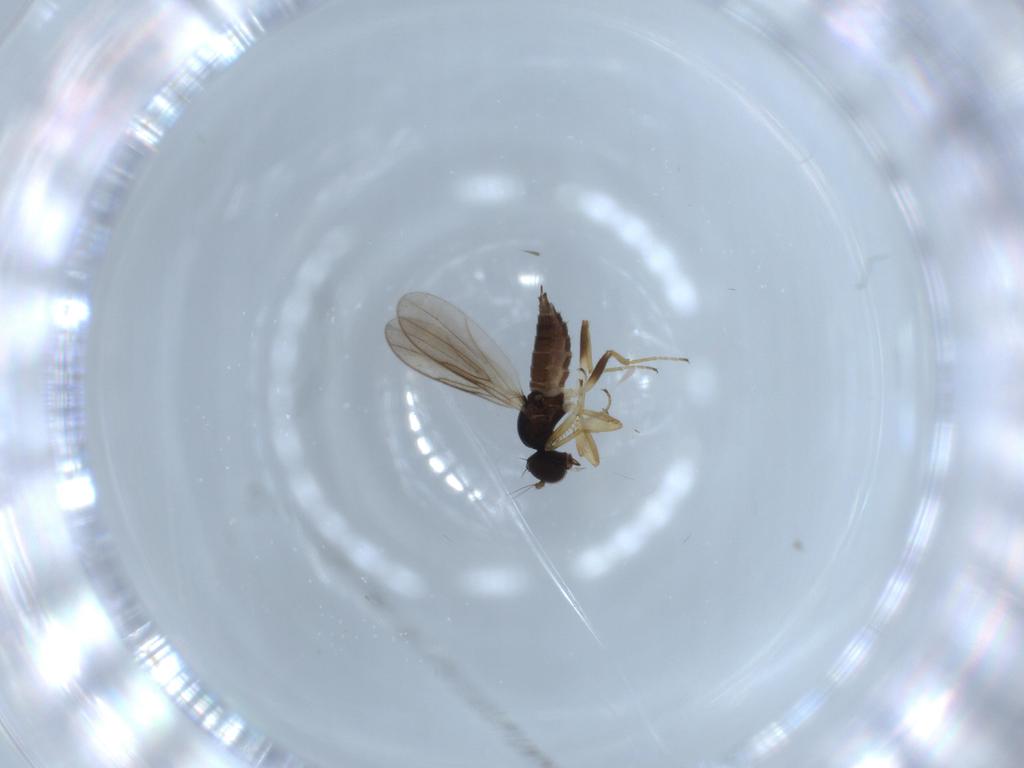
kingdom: Animalia
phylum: Arthropoda
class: Insecta
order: Diptera
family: Hybotidae
